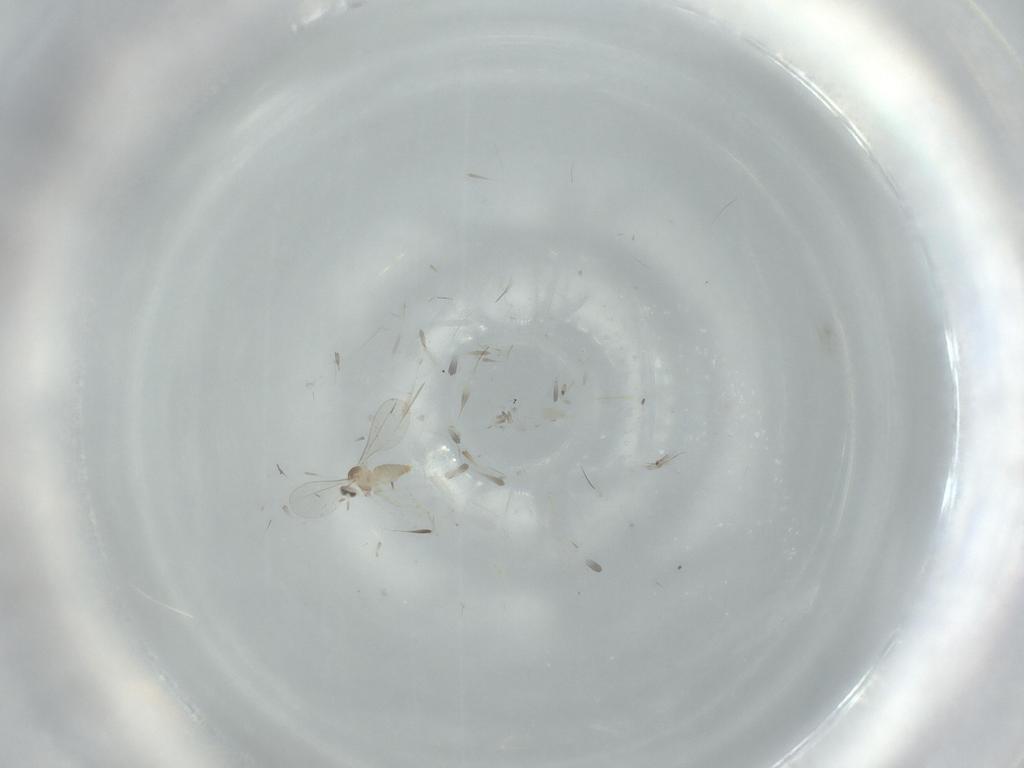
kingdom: Animalia
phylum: Arthropoda
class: Insecta
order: Diptera
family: Cecidomyiidae
